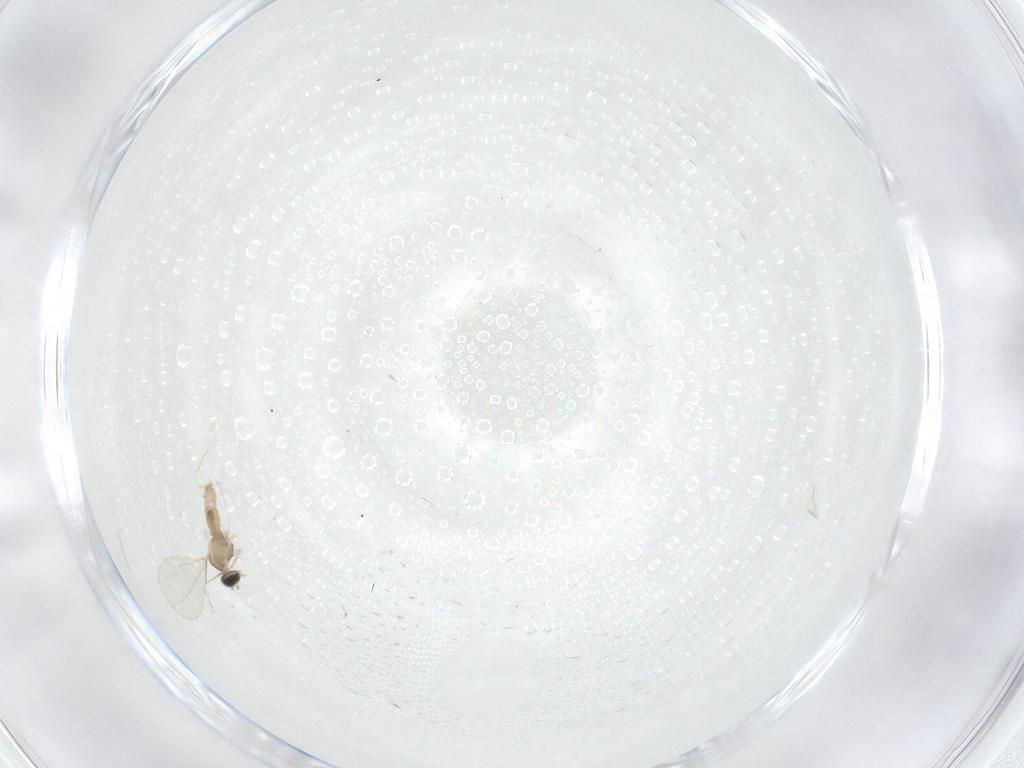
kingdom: Animalia
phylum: Arthropoda
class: Insecta
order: Diptera
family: Cecidomyiidae
